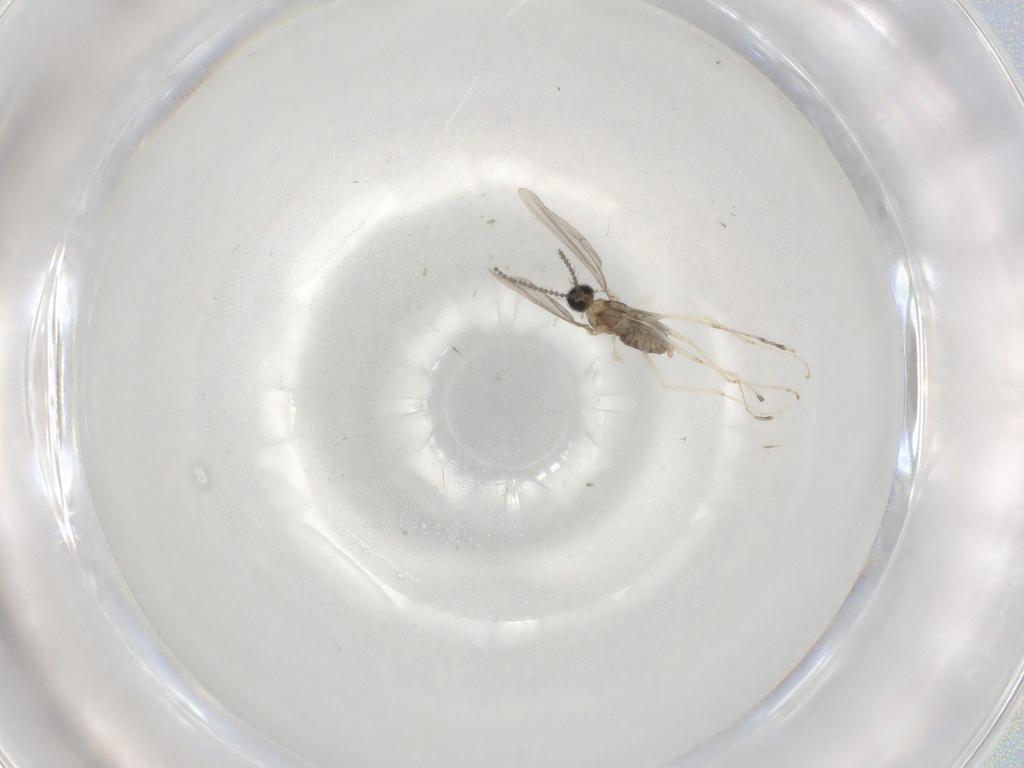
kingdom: Animalia
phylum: Arthropoda
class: Insecta
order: Diptera
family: Cecidomyiidae
